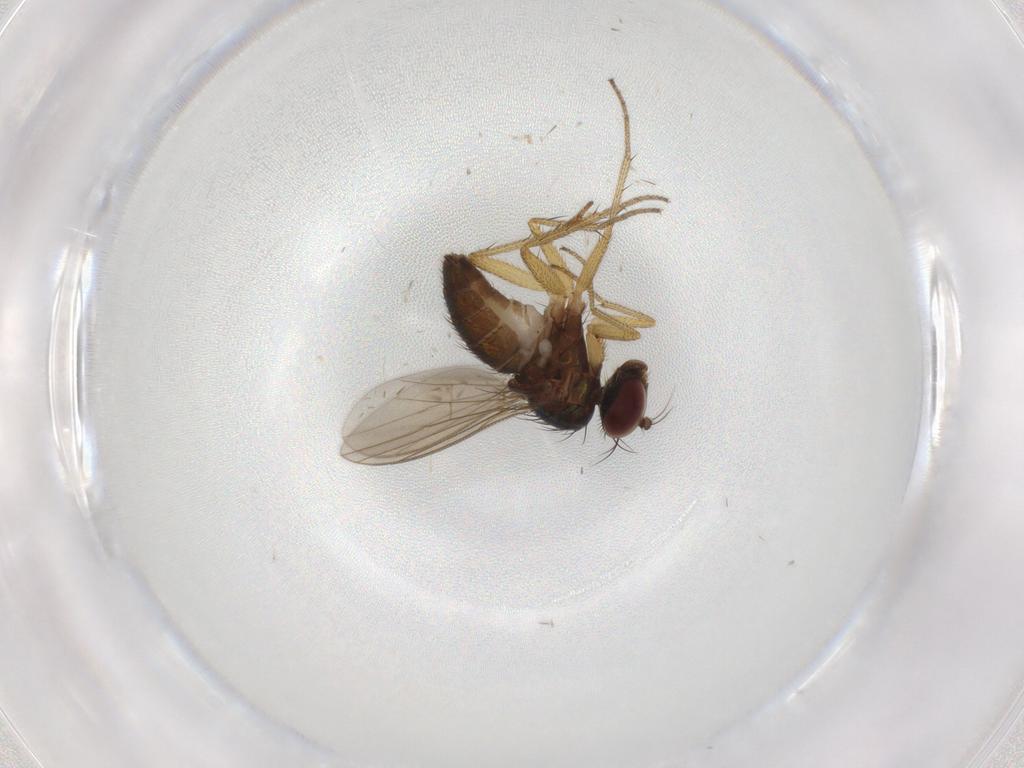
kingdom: Animalia
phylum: Arthropoda
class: Insecta
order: Diptera
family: Dolichopodidae
